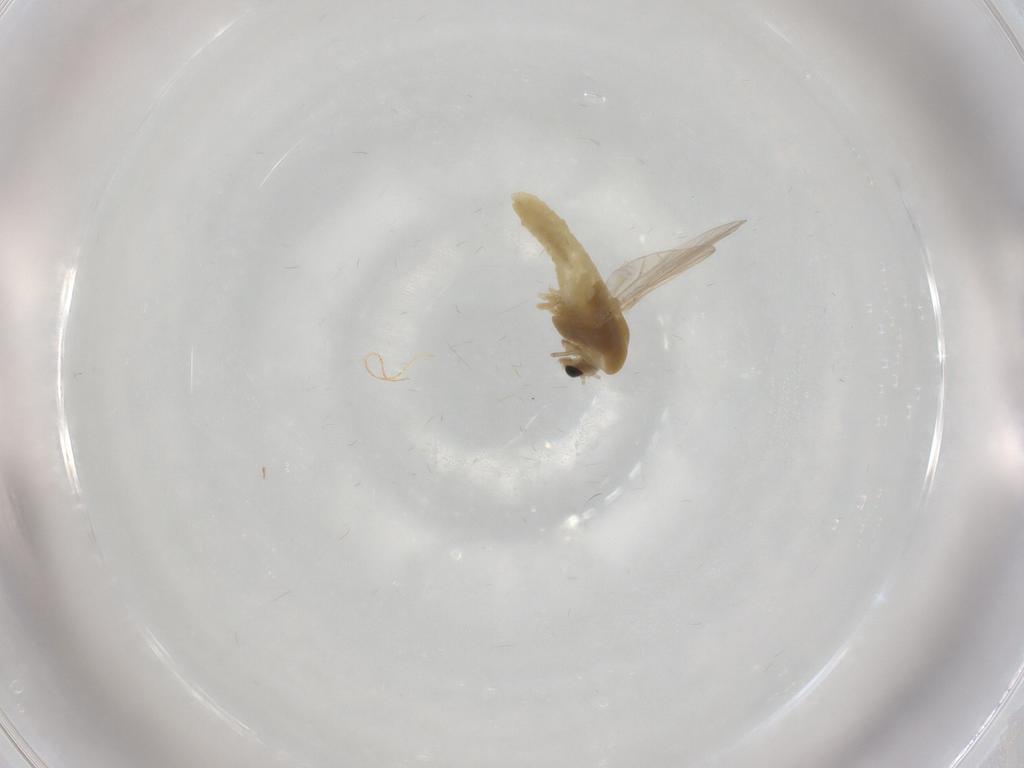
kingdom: Animalia
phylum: Arthropoda
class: Insecta
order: Diptera
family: Chironomidae
